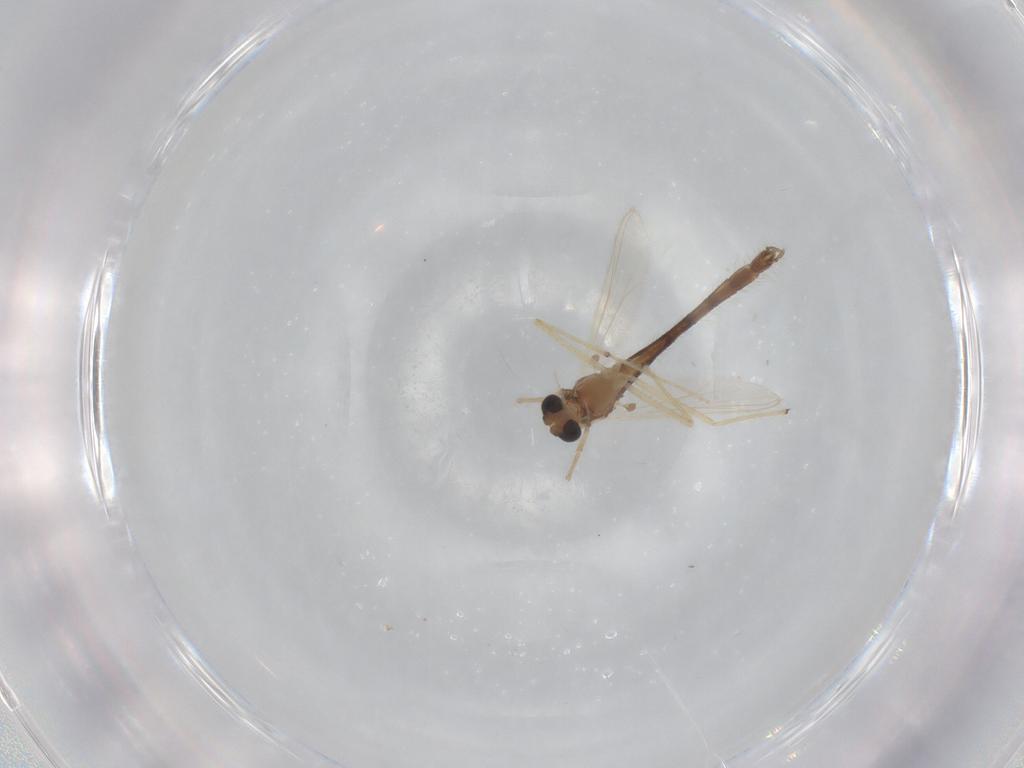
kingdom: Animalia
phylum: Arthropoda
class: Insecta
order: Diptera
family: Chironomidae
